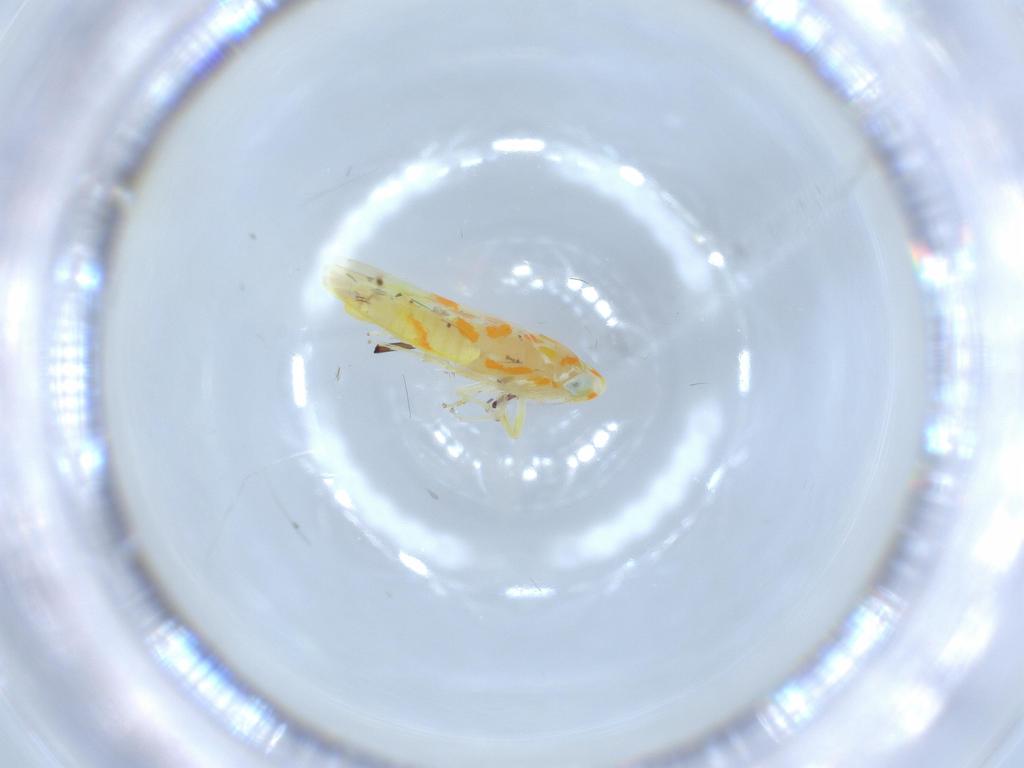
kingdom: Animalia
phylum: Arthropoda
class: Insecta
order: Hemiptera
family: Cicadellidae
